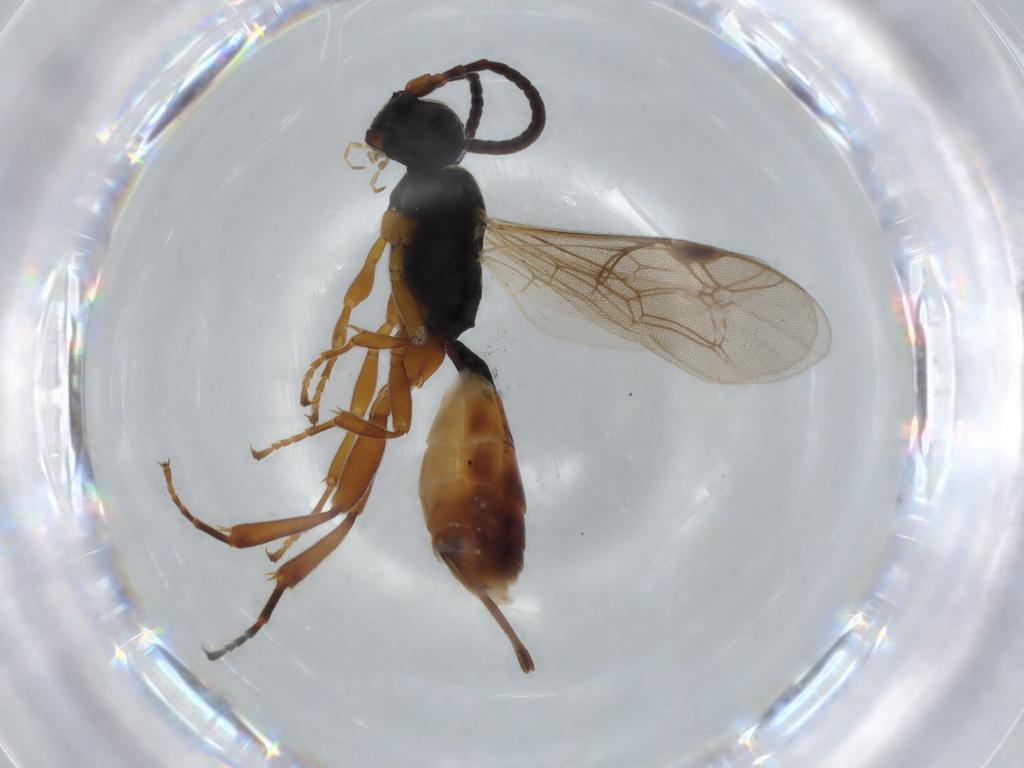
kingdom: Animalia
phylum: Arthropoda
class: Insecta
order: Hymenoptera
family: Ichneumonidae
